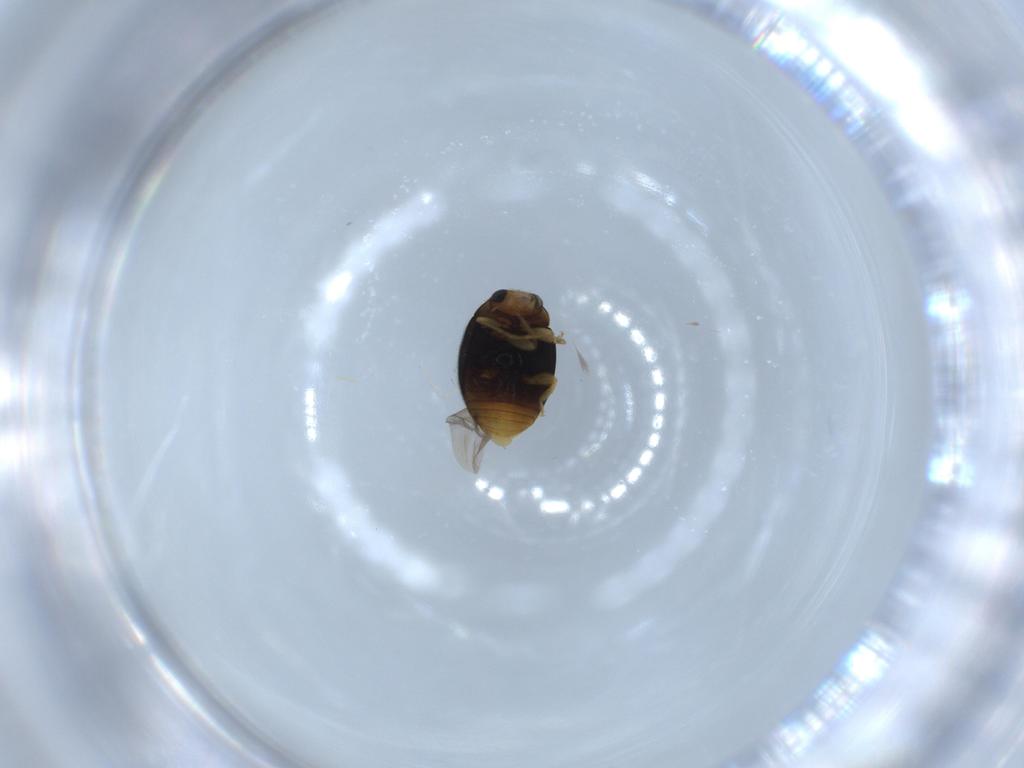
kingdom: Animalia
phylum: Arthropoda
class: Insecta
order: Coleoptera
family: Coccinellidae
